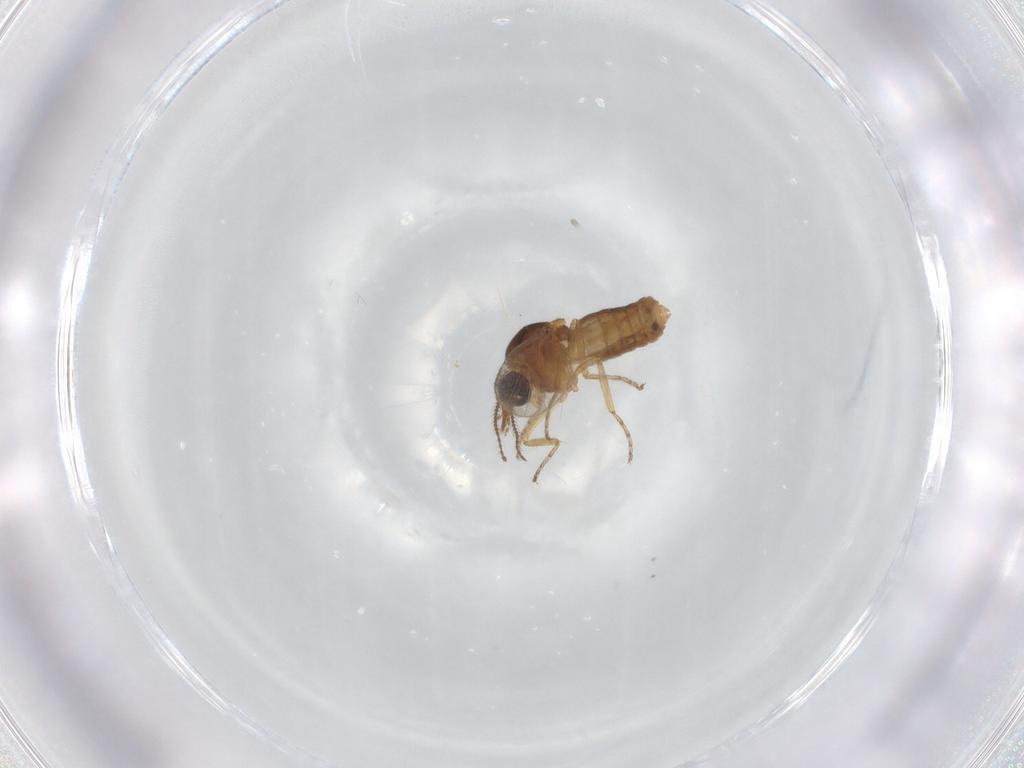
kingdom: Animalia
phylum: Arthropoda
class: Insecta
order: Diptera
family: Ceratopogonidae
